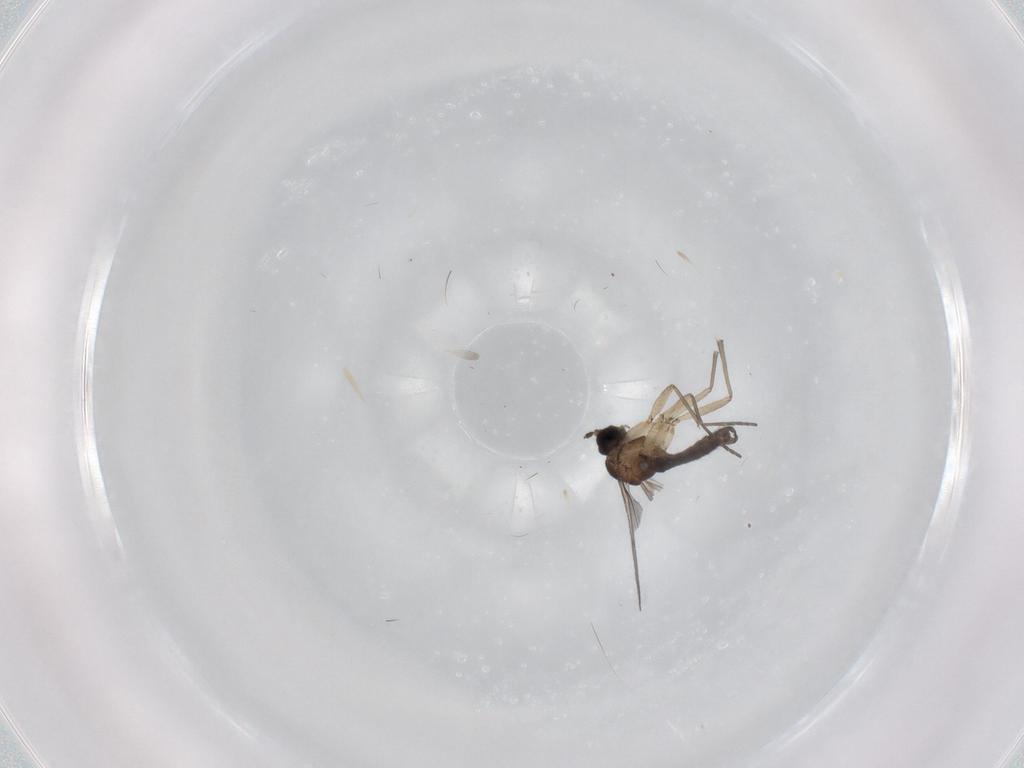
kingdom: Animalia
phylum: Arthropoda
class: Insecta
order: Diptera
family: Sciaridae
